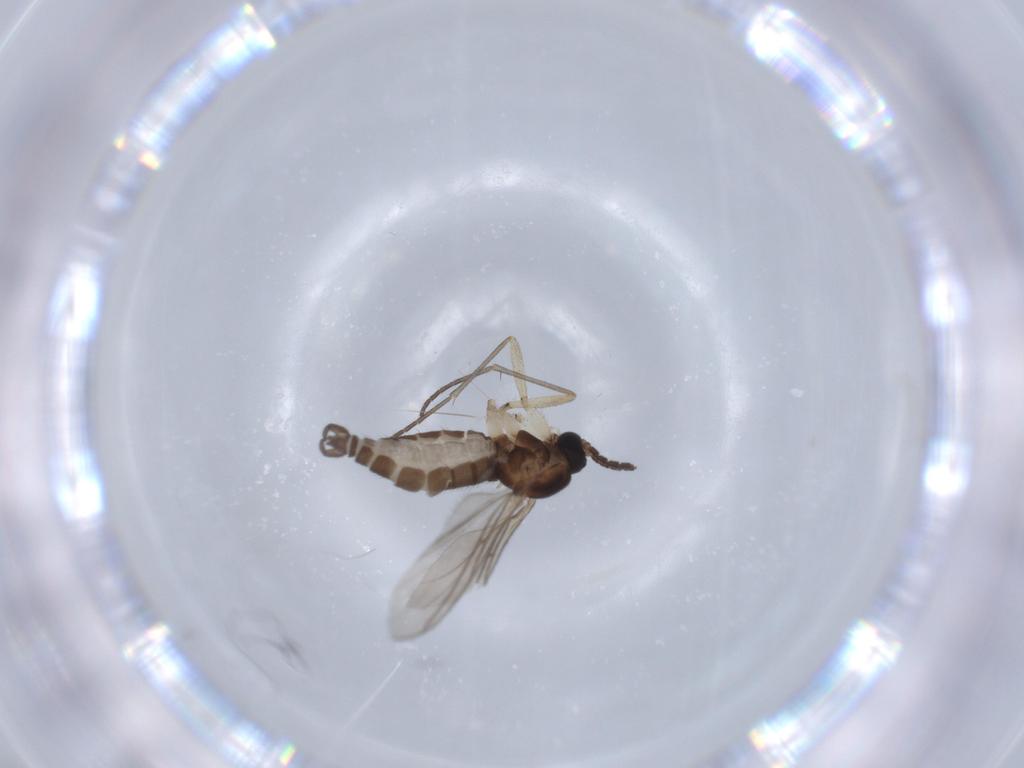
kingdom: Animalia
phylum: Arthropoda
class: Insecta
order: Diptera
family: Sciaridae
